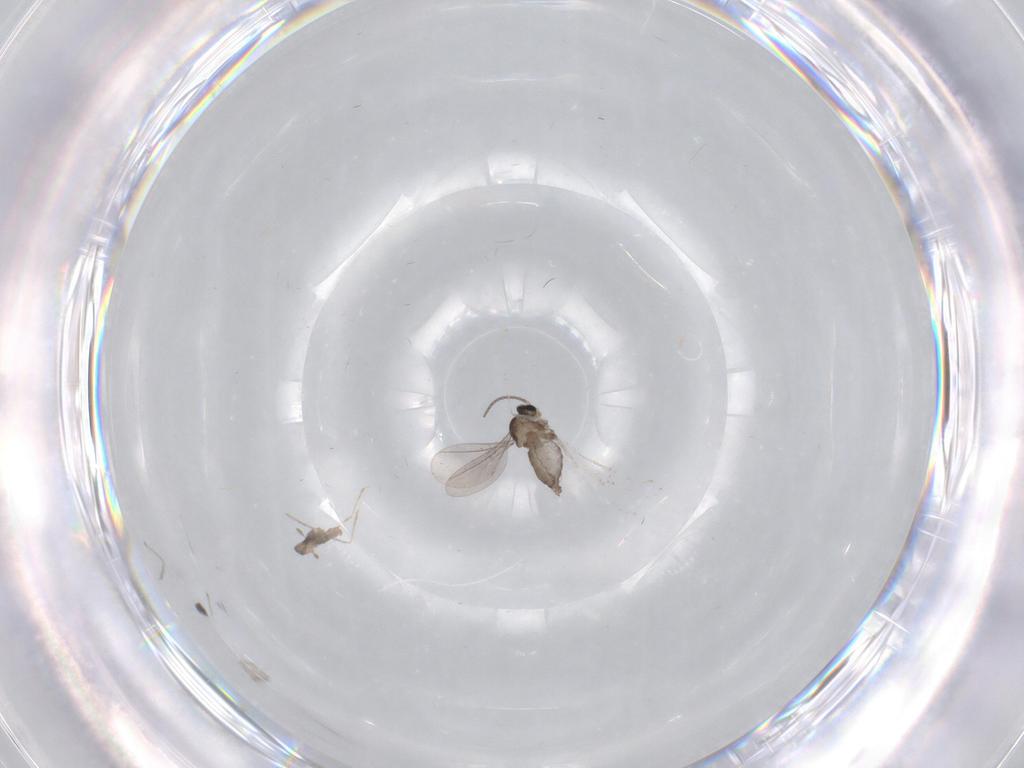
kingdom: Animalia
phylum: Arthropoda
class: Insecta
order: Diptera
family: Cecidomyiidae
